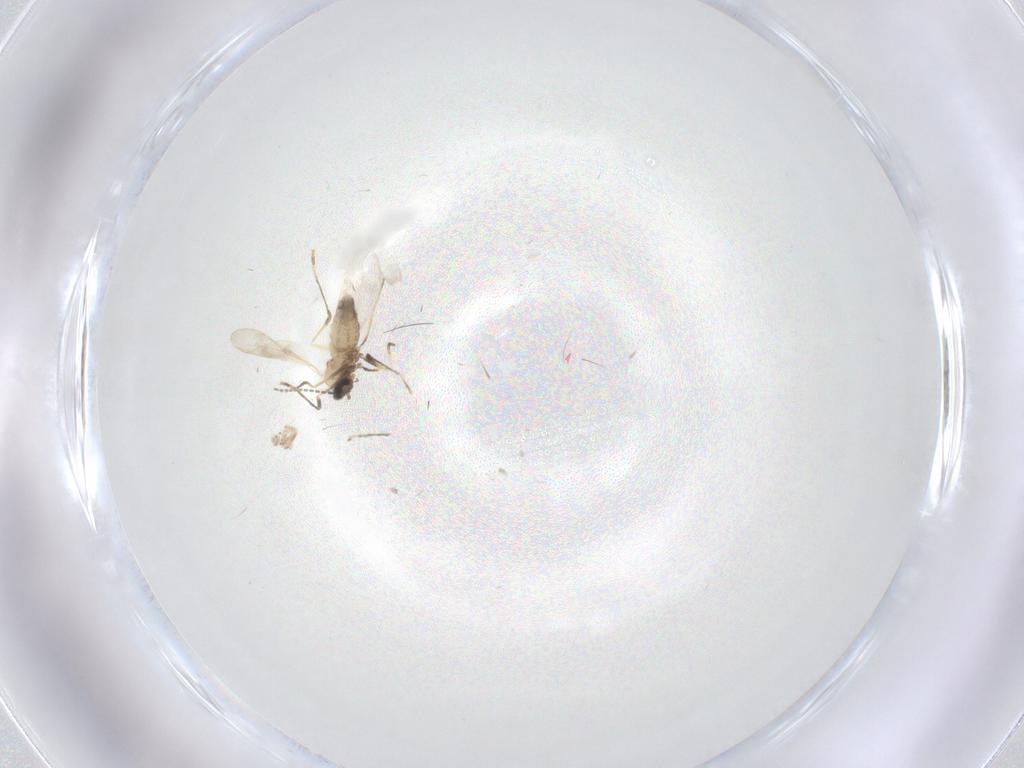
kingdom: Animalia
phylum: Arthropoda
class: Insecta
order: Diptera
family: Cecidomyiidae
